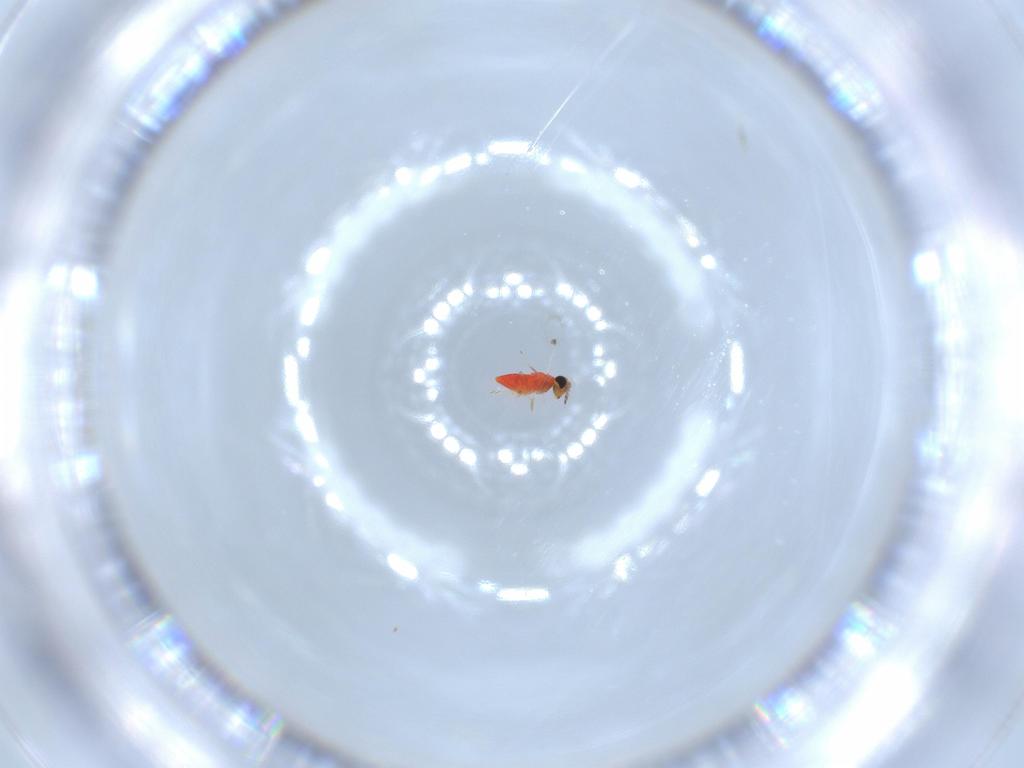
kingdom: Animalia
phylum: Arthropoda
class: Insecta
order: Hymenoptera
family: Trichogrammatidae
